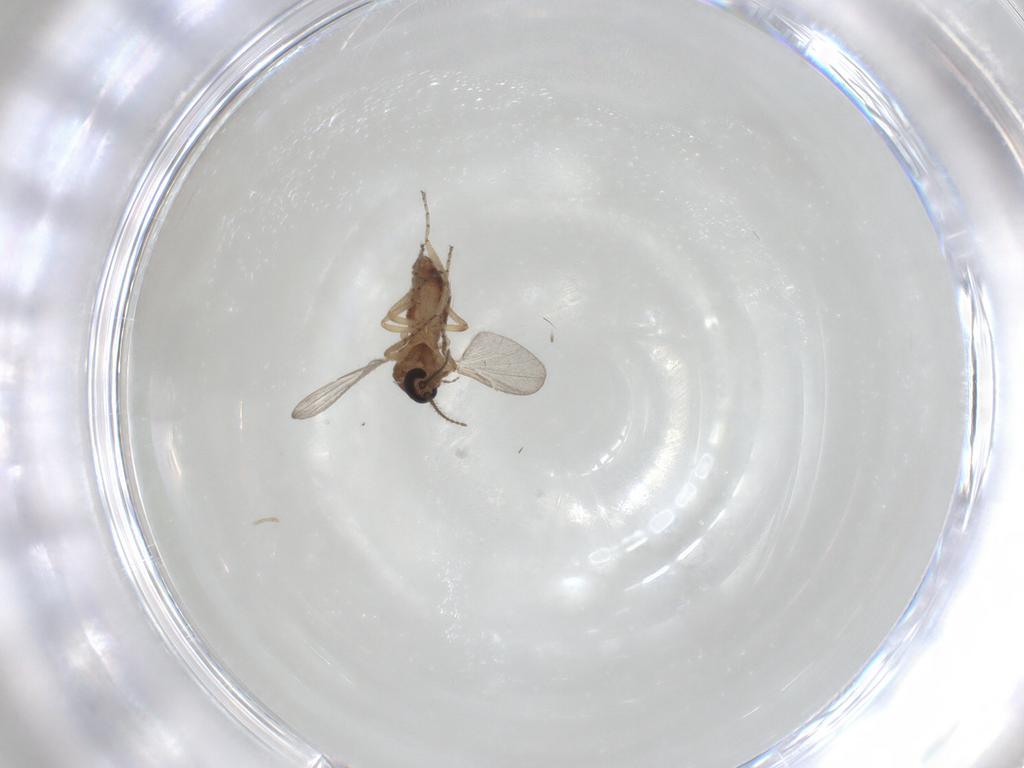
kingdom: Animalia
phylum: Arthropoda
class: Insecta
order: Diptera
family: Ceratopogonidae
